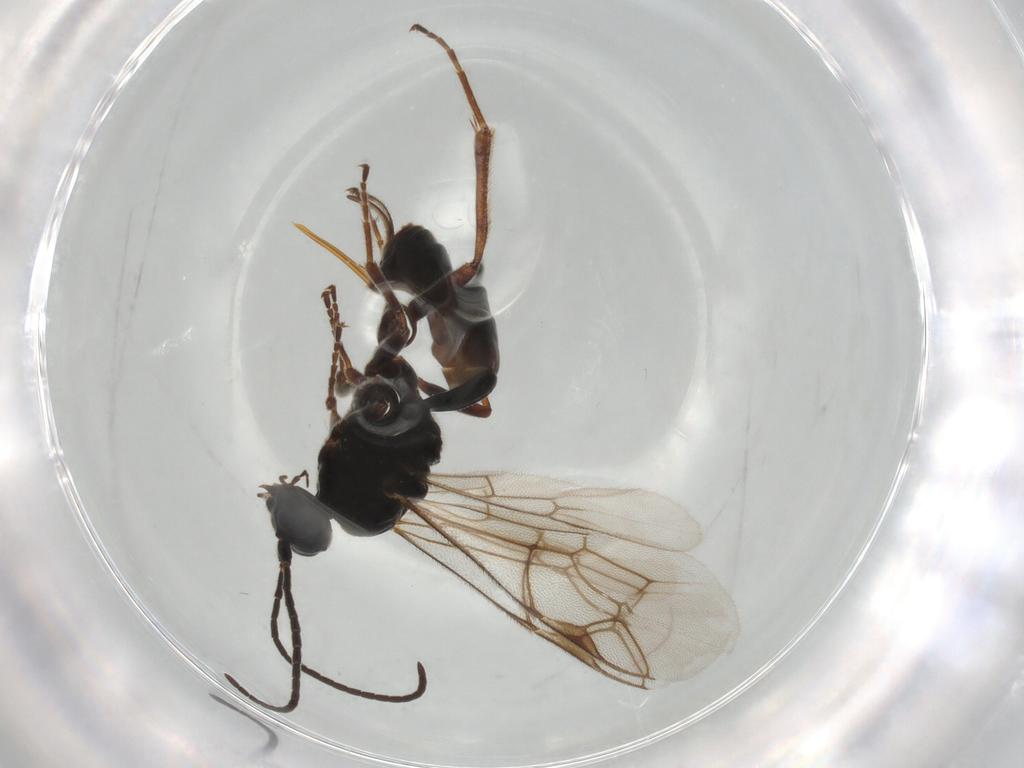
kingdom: Animalia
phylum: Arthropoda
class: Insecta
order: Hymenoptera
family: Ichneumonidae
